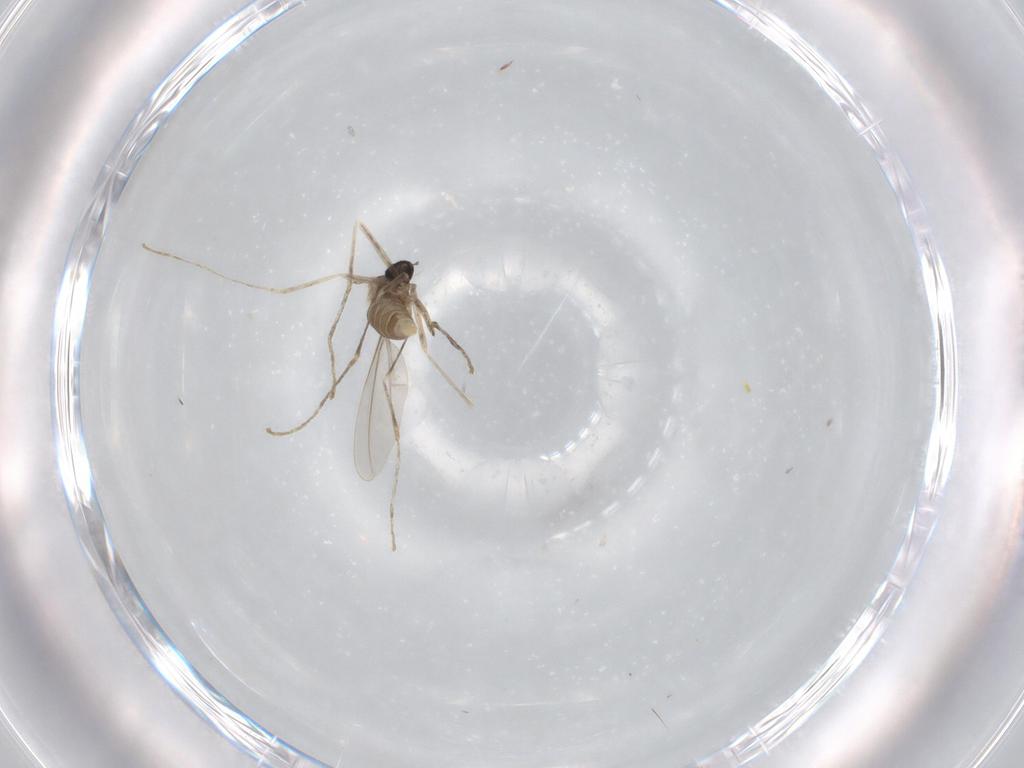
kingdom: Animalia
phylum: Arthropoda
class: Insecta
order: Diptera
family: Cecidomyiidae
